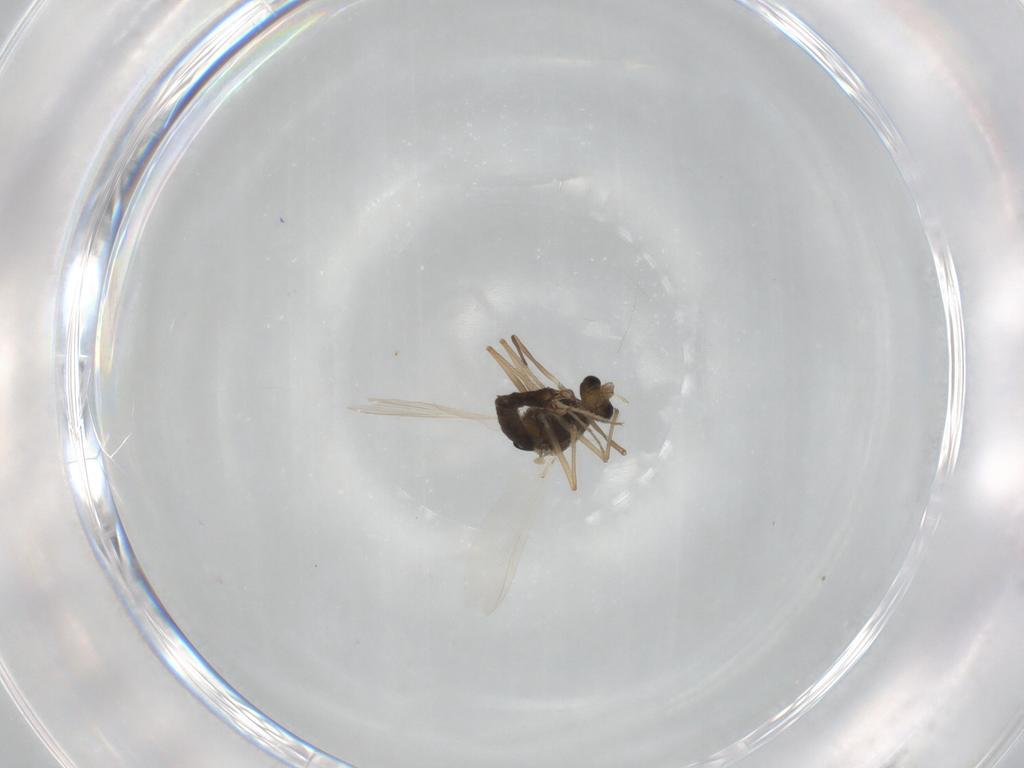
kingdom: Animalia
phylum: Arthropoda
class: Insecta
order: Diptera
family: Chironomidae
